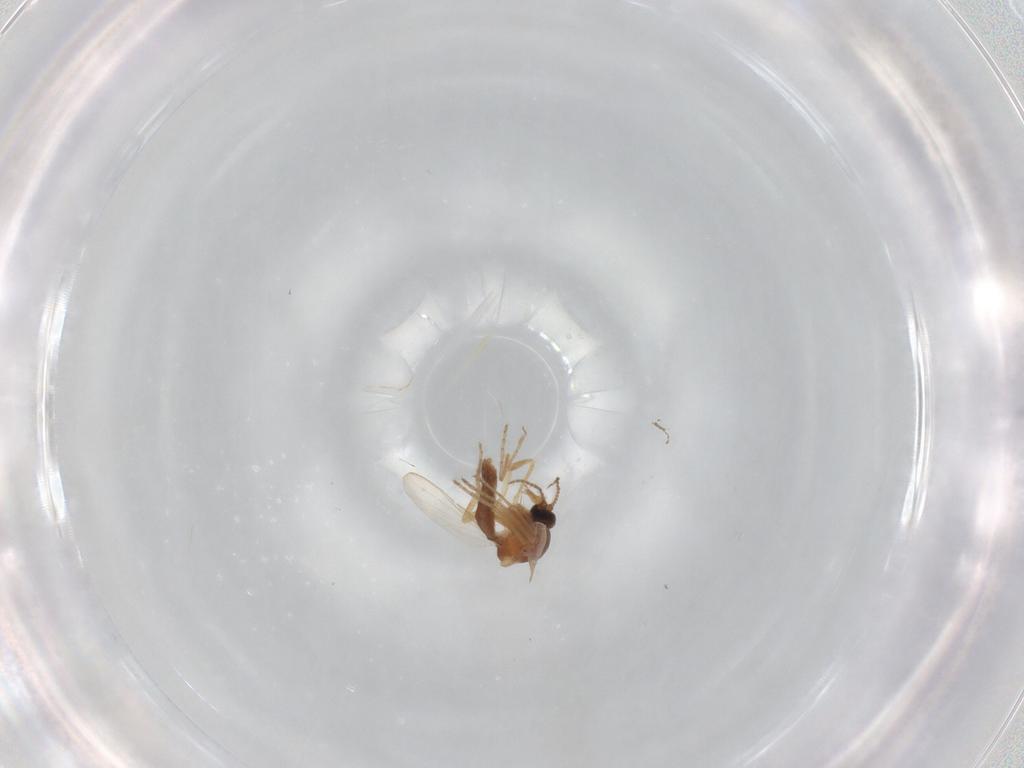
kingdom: Animalia
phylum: Arthropoda
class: Insecta
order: Diptera
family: Ceratopogonidae
